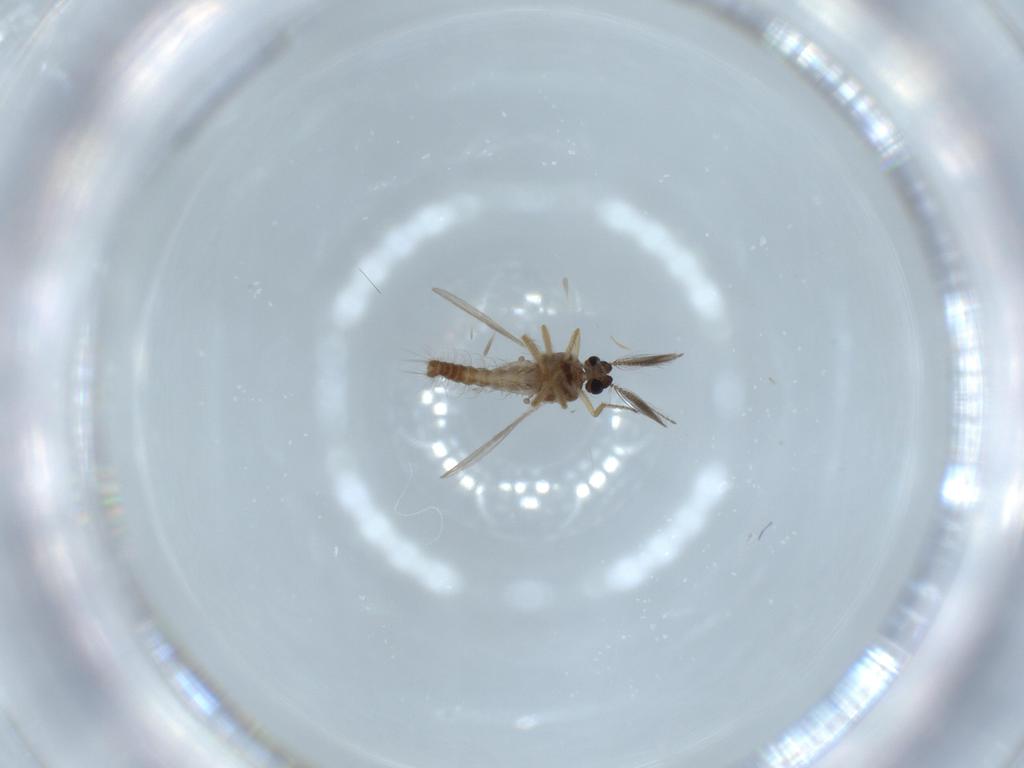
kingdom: Animalia
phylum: Arthropoda
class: Insecta
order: Diptera
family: Ceratopogonidae
